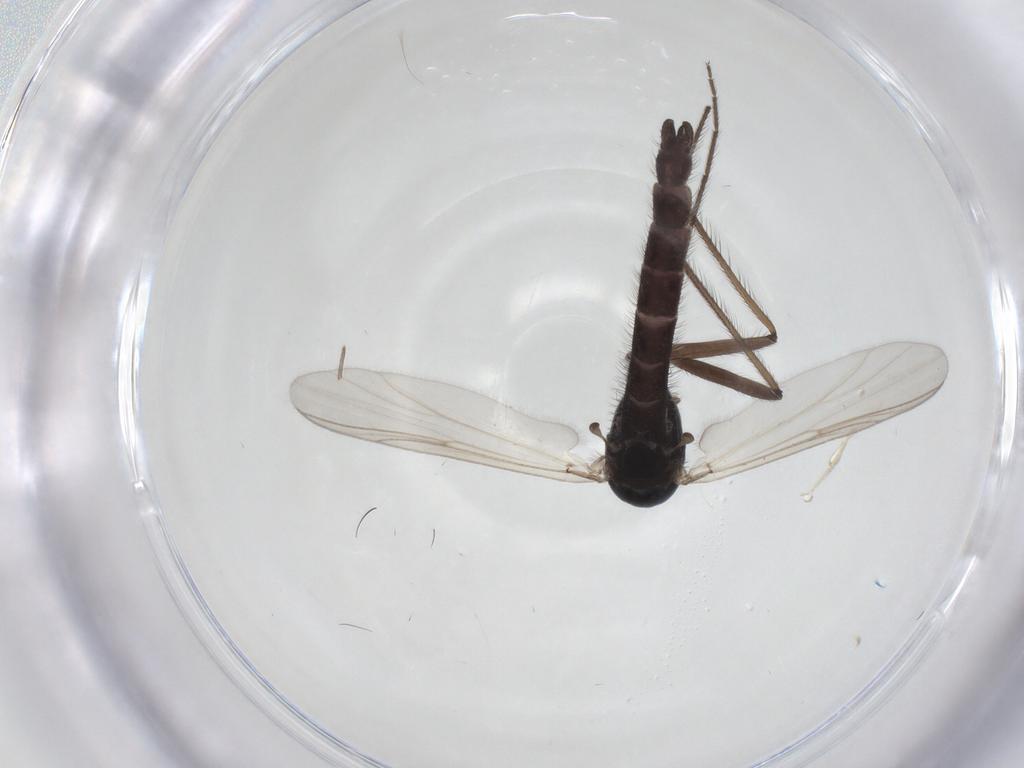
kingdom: Animalia
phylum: Arthropoda
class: Insecta
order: Diptera
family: Chironomidae
